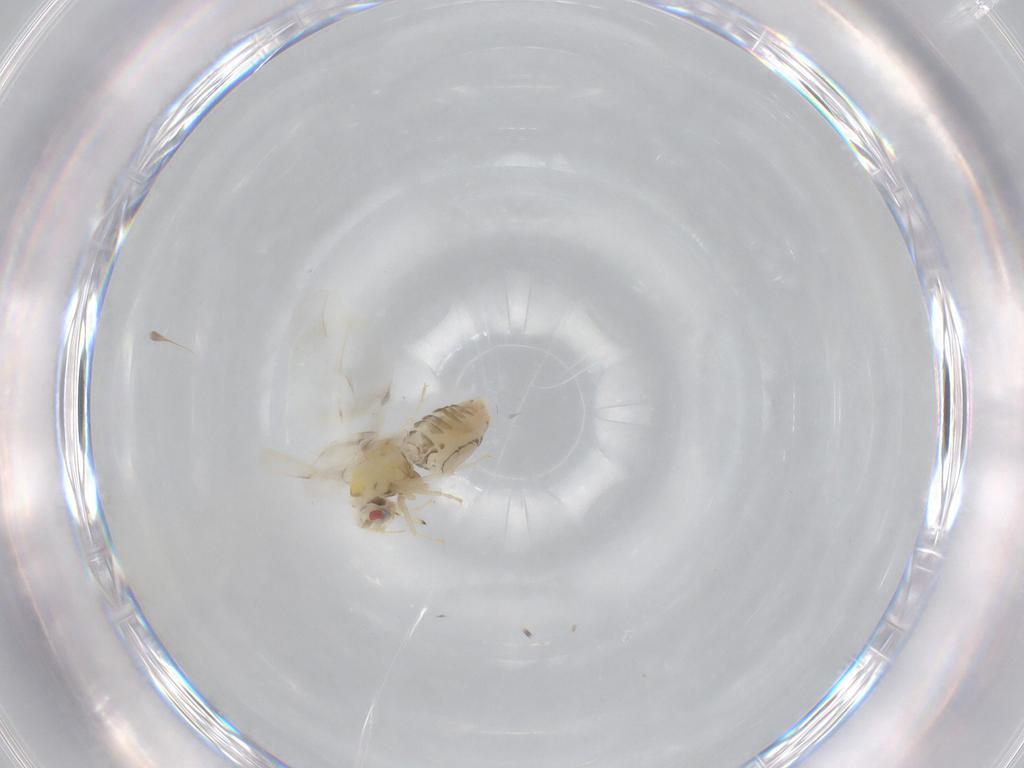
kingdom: Animalia
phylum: Arthropoda
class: Insecta
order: Hemiptera
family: Aleyrodidae
